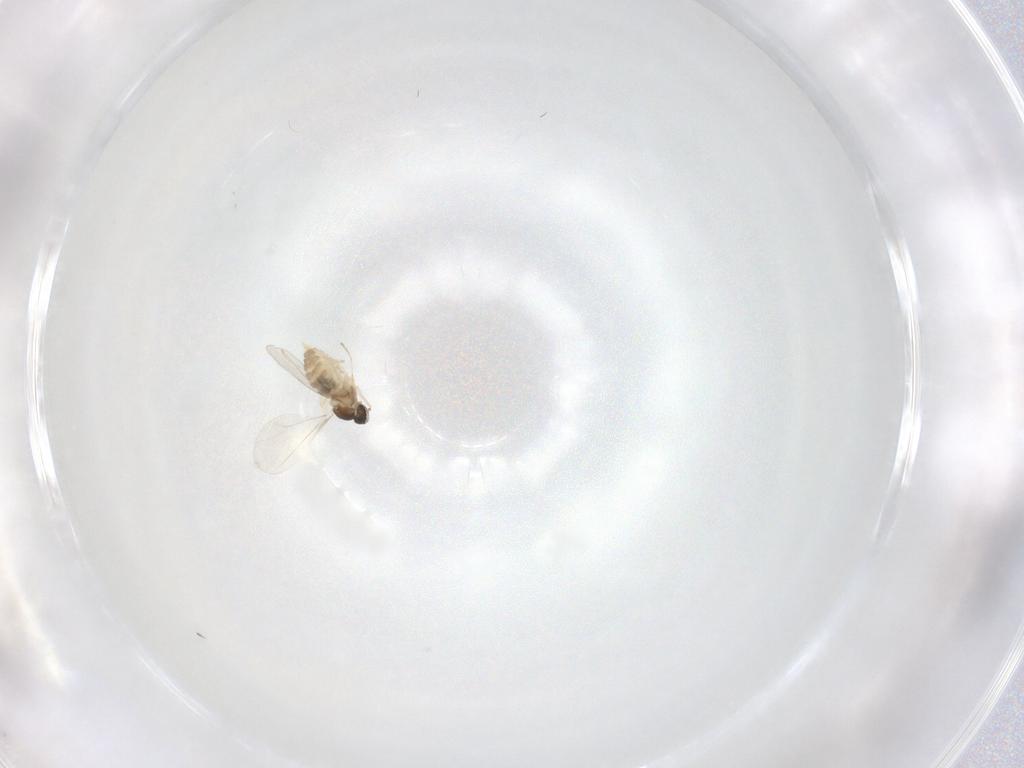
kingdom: Animalia
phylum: Arthropoda
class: Insecta
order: Diptera
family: Cecidomyiidae
